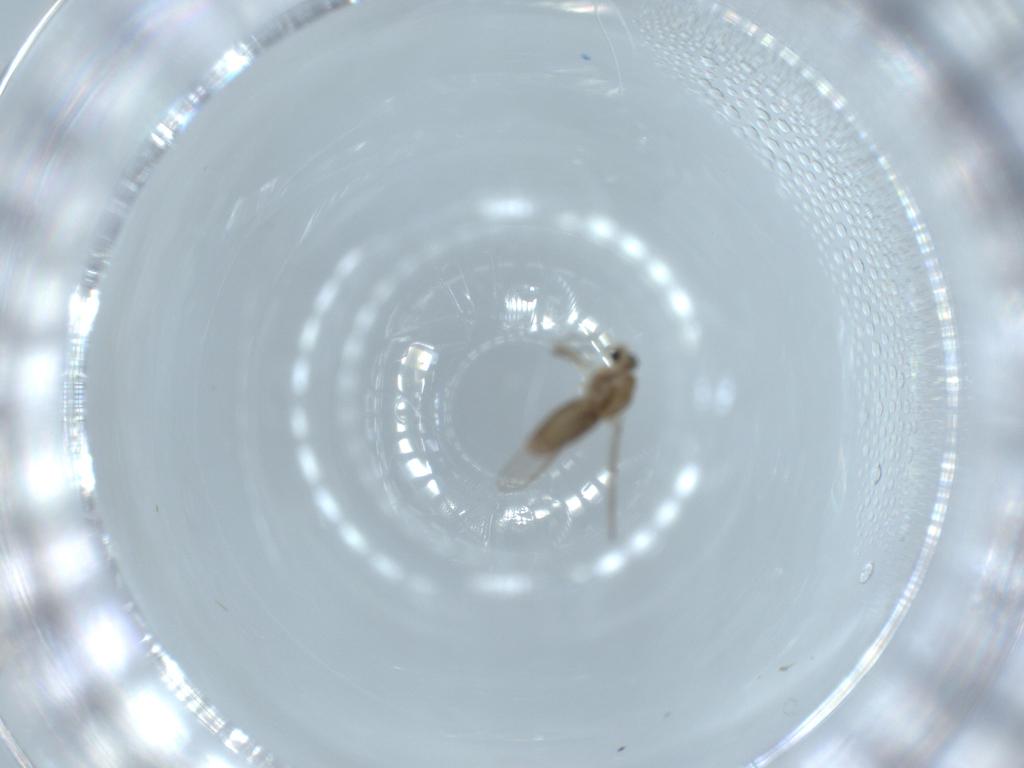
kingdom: Animalia
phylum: Arthropoda
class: Insecta
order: Diptera
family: Chironomidae
